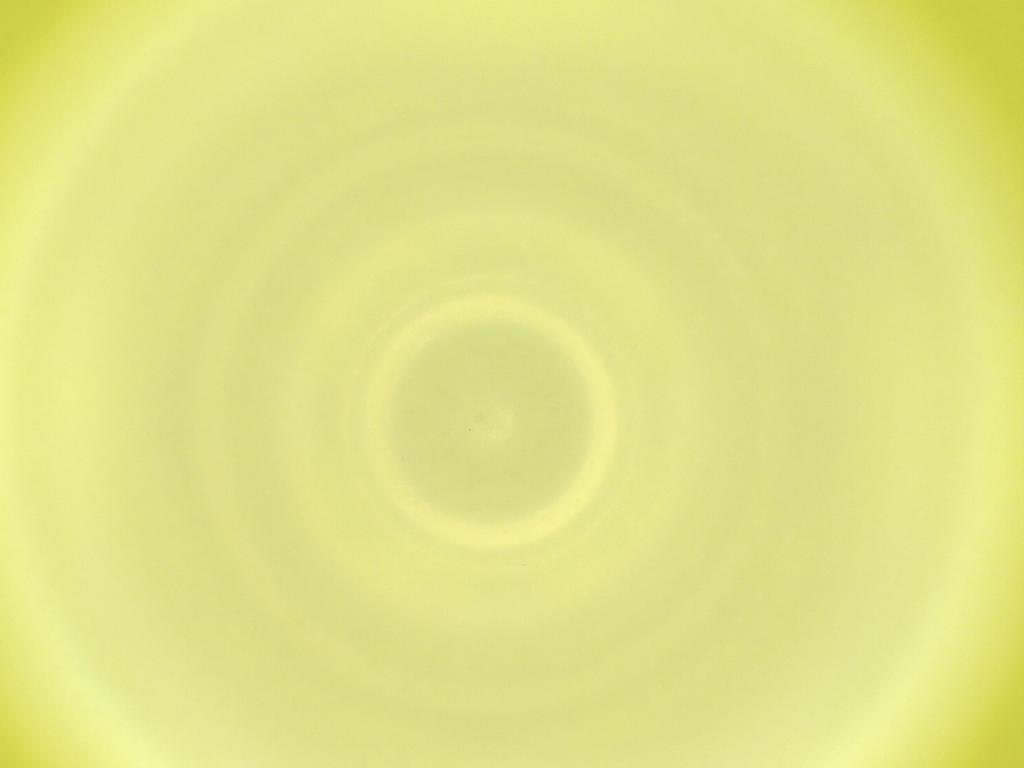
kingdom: Animalia
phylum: Arthropoda
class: Insecta
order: Diptera
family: Cecidomyiidae
